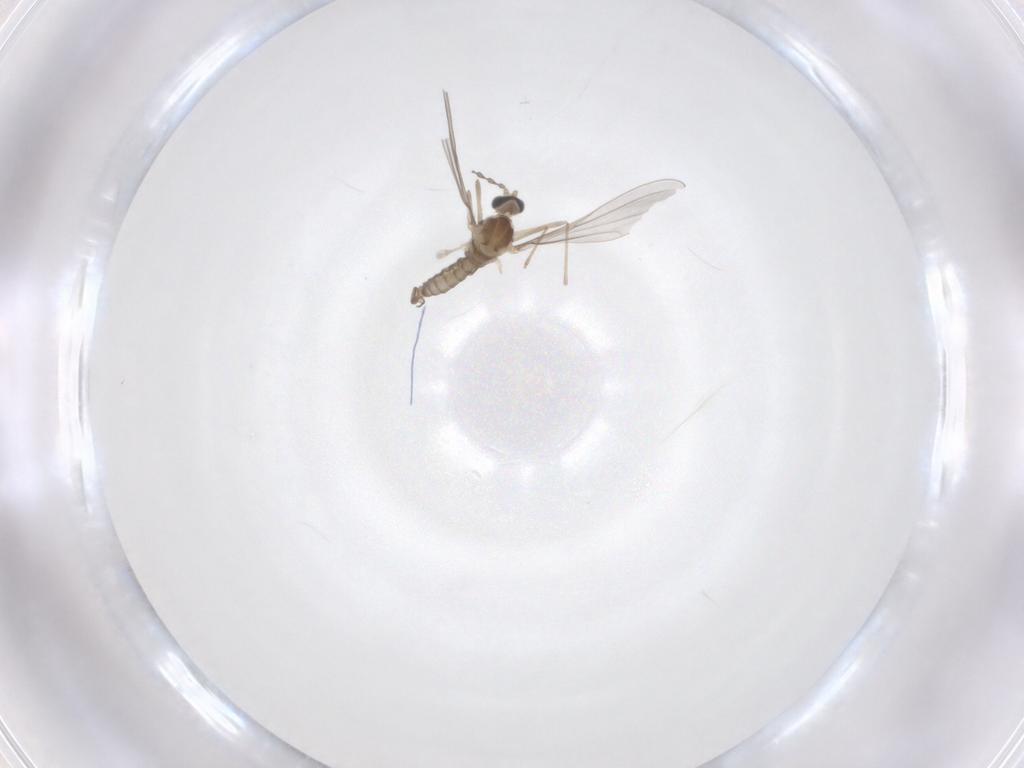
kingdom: Animalia
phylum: Arthropoda
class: Insecta
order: Diptera
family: Cecidomyiidae
